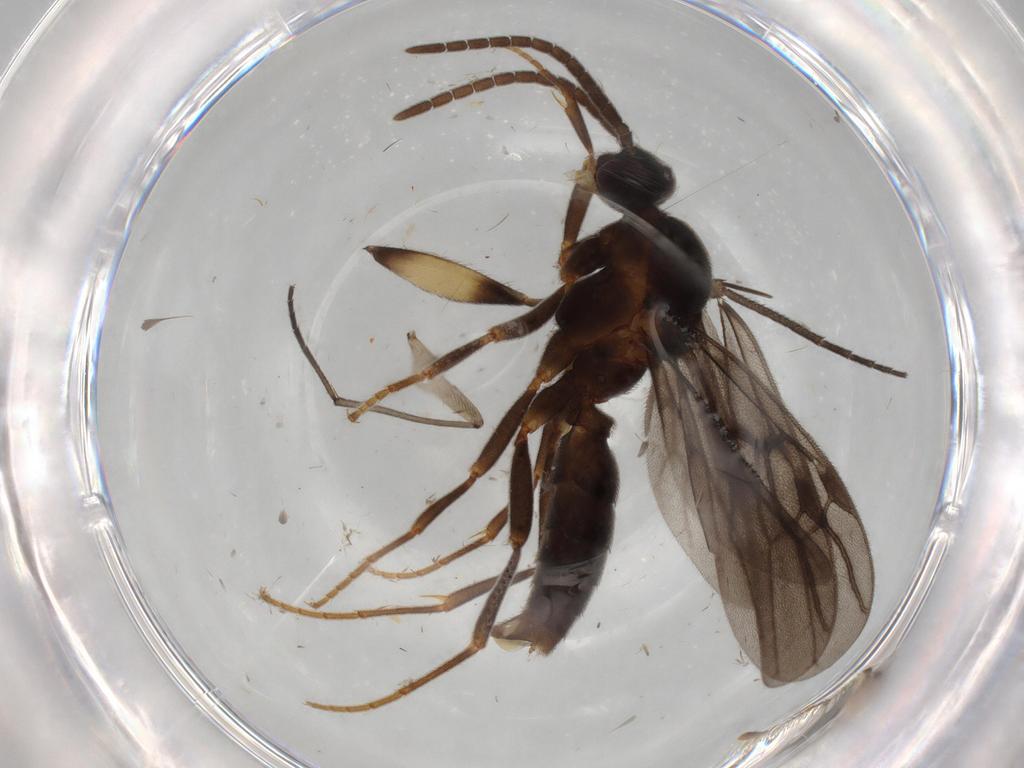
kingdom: Animalia
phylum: Arthropoda
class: Insecta
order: Hymenoptera
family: Formicidae
